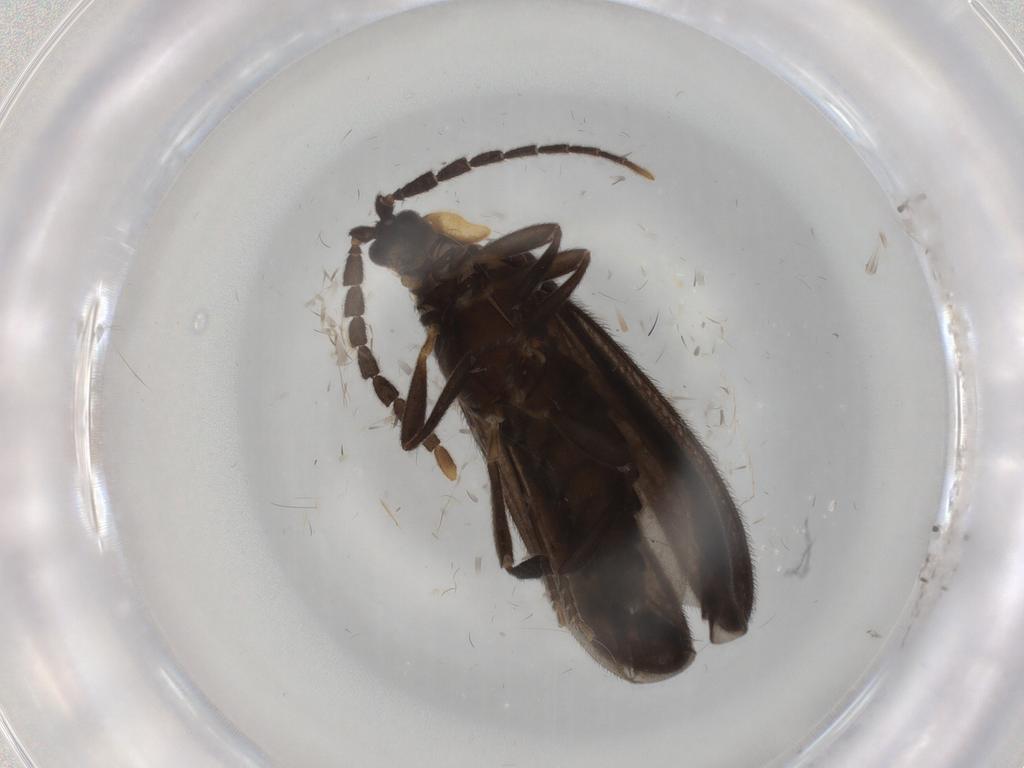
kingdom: Animalia
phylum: Arthropoda
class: Insecta
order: Coleoptera
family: Lycidae
